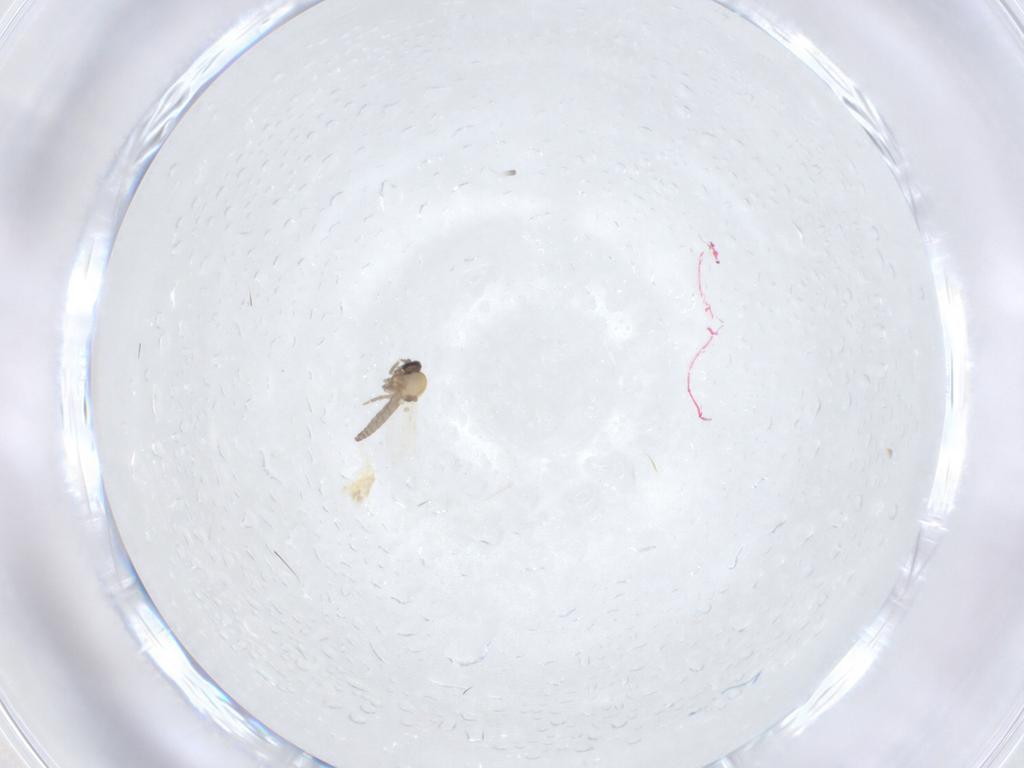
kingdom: Animalia
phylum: Arthropoda
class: Insecta
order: Diptera
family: Ceratopogonidae
